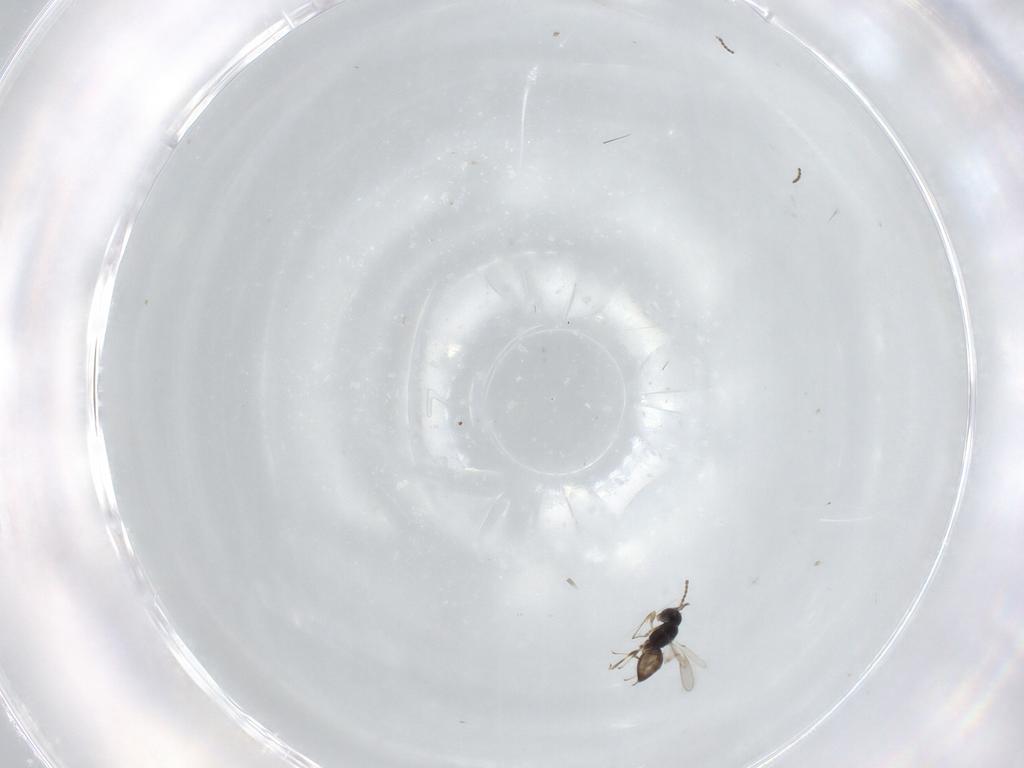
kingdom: Animalia
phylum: Arthropoda
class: Insecta
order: Hymenoptera
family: Scelionidae
